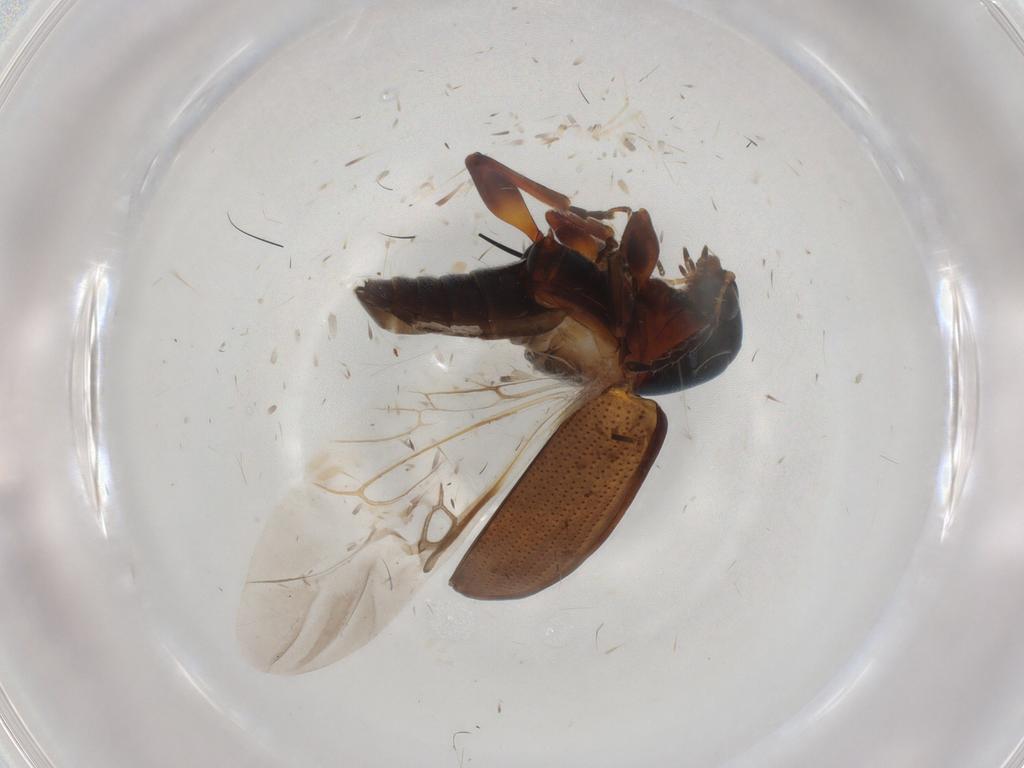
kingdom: Animalia
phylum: Arthropoda
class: Insecta
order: Coleoptera
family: Chrysomelidae
